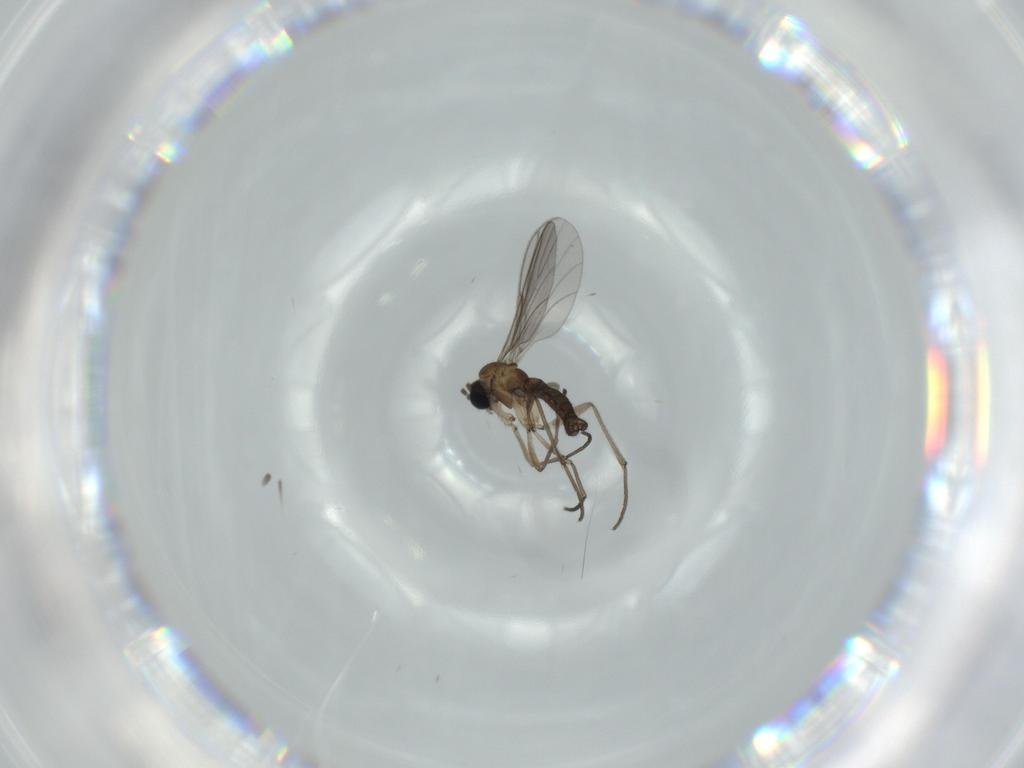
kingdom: Animalia
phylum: Arthropoda
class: Insecta
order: Diptera
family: Sciaridae
